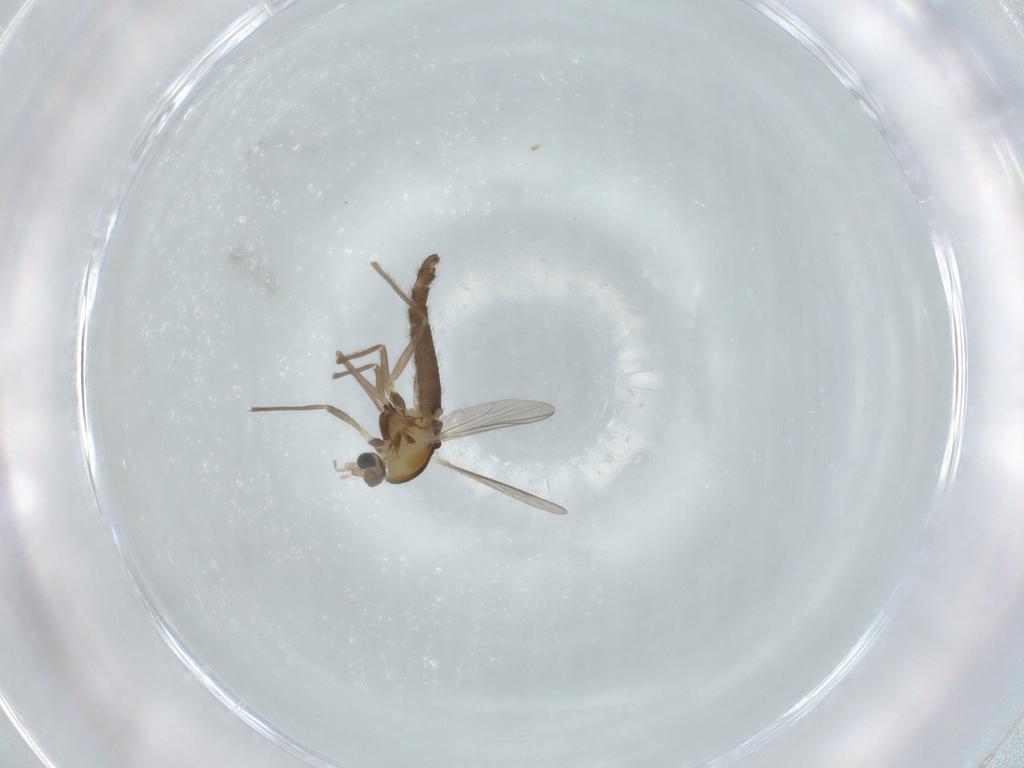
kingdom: Animalia
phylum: Arthropoda
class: Insecta
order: Diptera
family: Chironomidae
